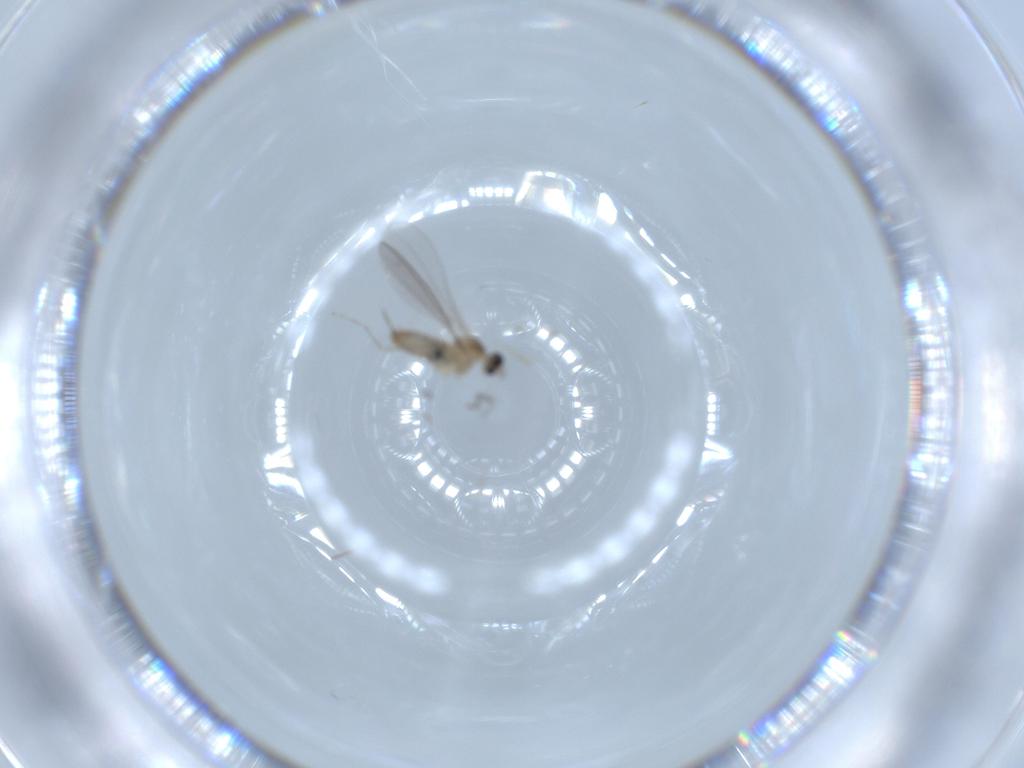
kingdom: Animalia
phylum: Arthropoda
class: Insecta
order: Diptera
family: Cecidomyiidae
